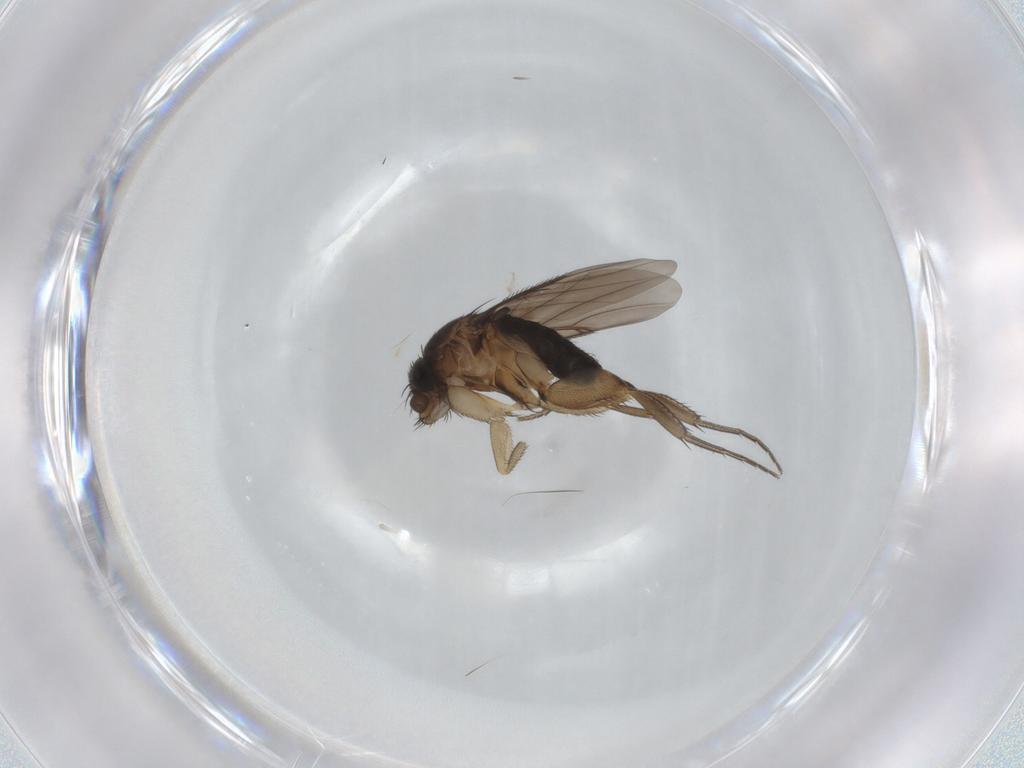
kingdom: Animalia
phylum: Arthropoda
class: Insecta
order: Diptera
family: Phoridae
